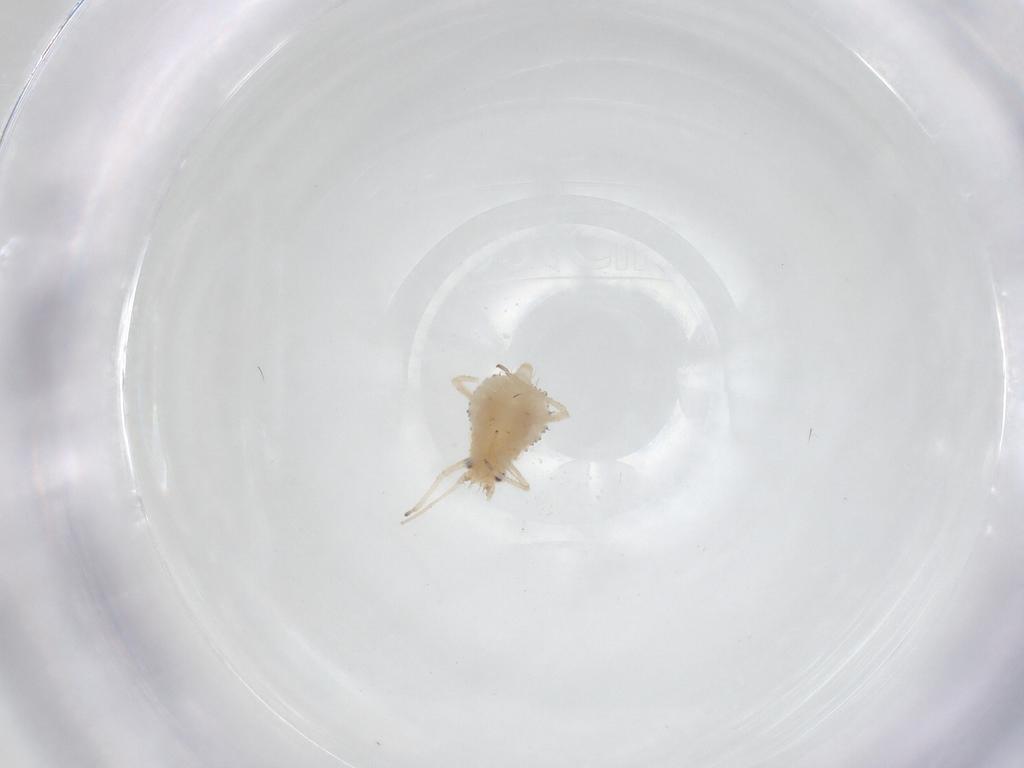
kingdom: Animalia
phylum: Arthropoda
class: Insecta
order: Hemiptera
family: Aphididae
